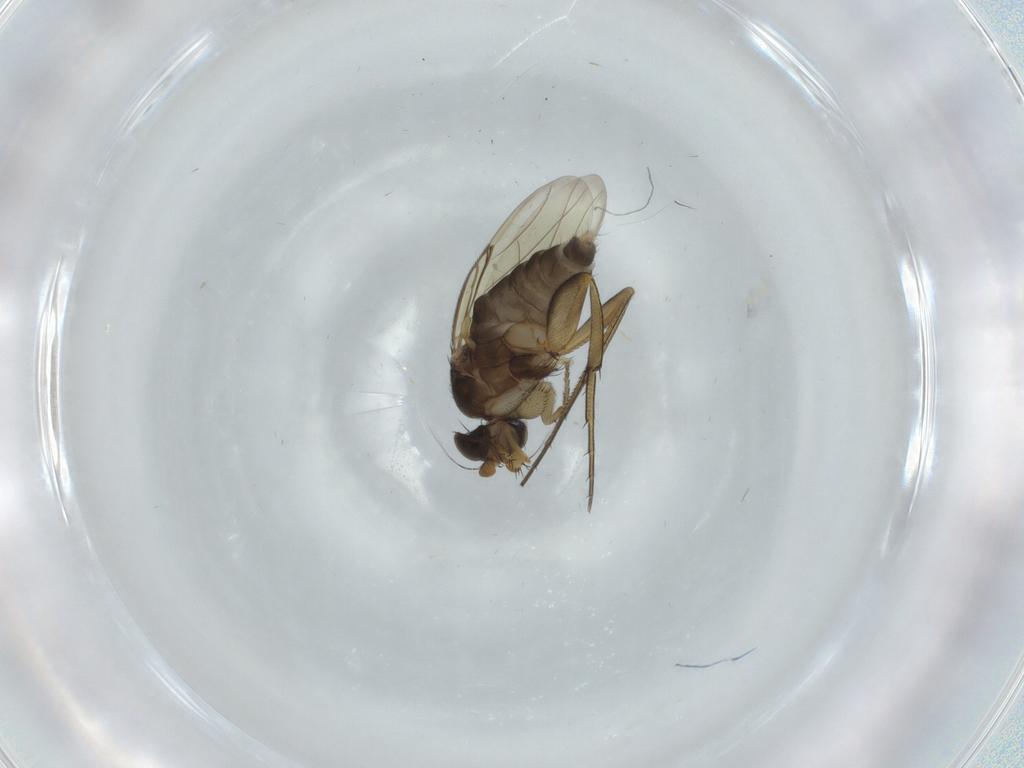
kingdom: Animalia
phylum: Arthropoda
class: Insecta
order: Diptera
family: Phoridae
